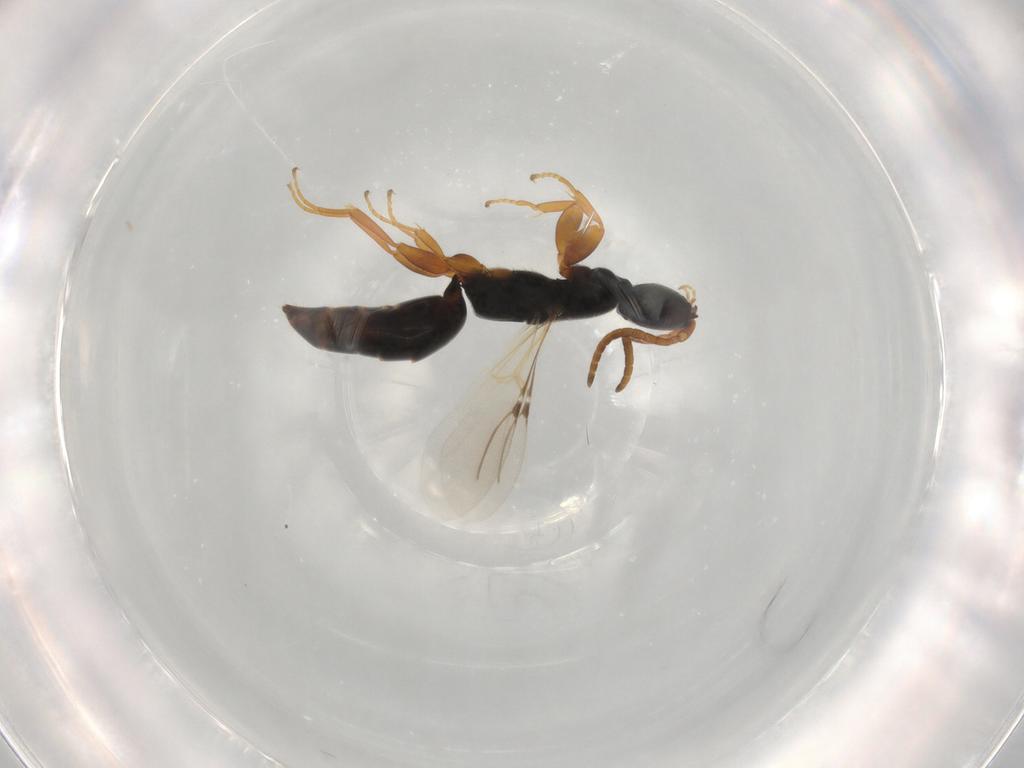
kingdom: Animalia
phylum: Arthropoda
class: Insecta
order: Hymenoptera
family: Bethylidae
